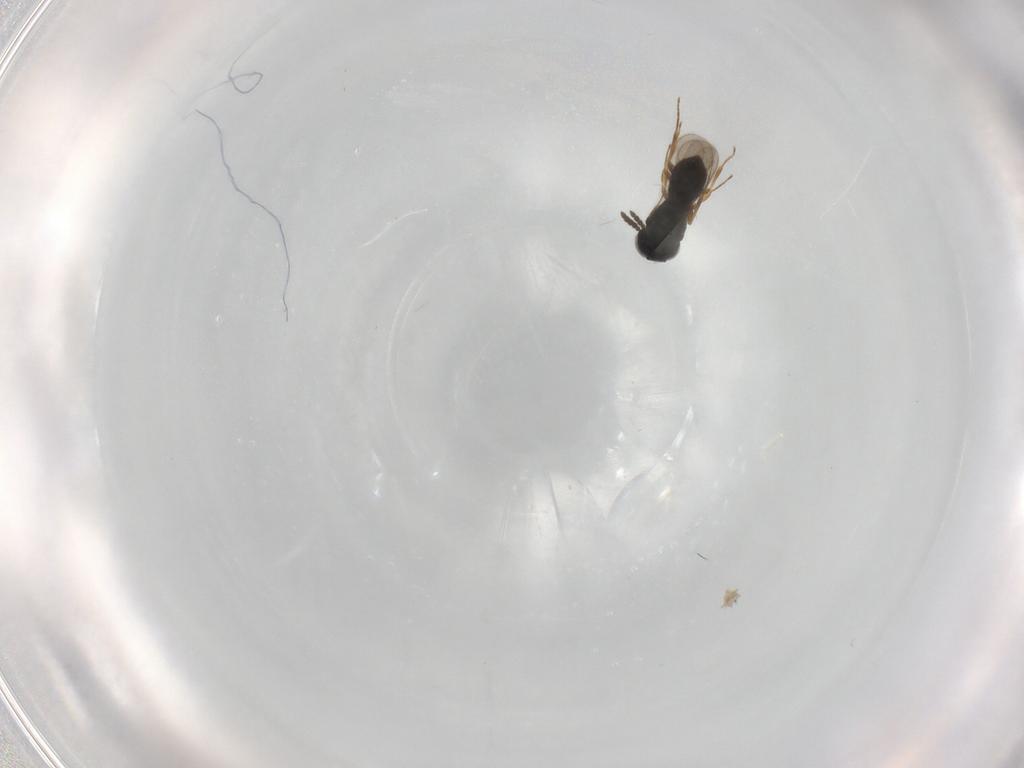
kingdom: Animalia
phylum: Arthropoda
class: Insecta
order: Hymenoptera
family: Scelionidae
